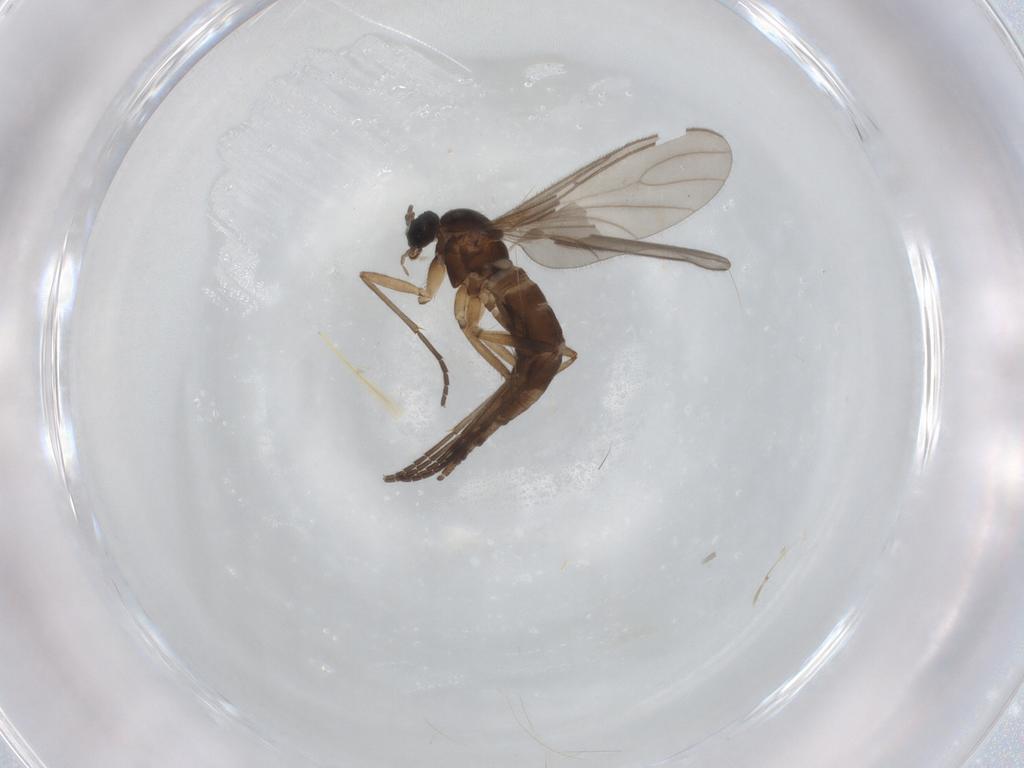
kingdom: Animalia
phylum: Arthropoda
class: Insecta
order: Diptera
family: Sciaridae
